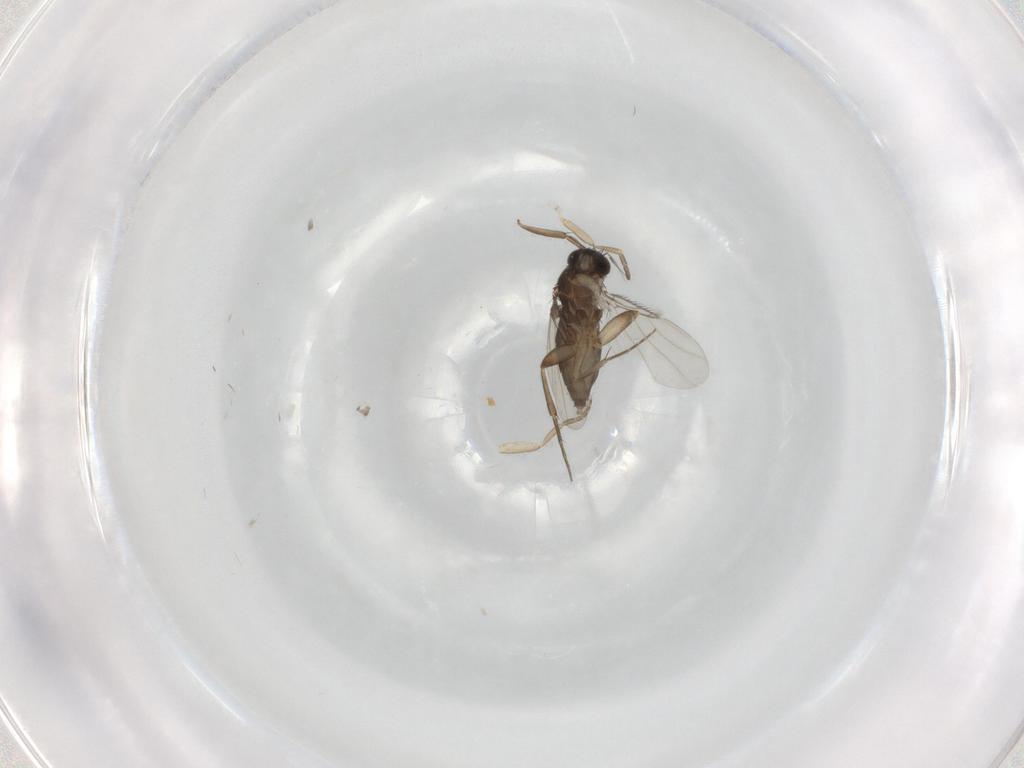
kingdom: Animalia
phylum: Arthropoda
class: Insecta
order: Diptera
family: Phoridae
